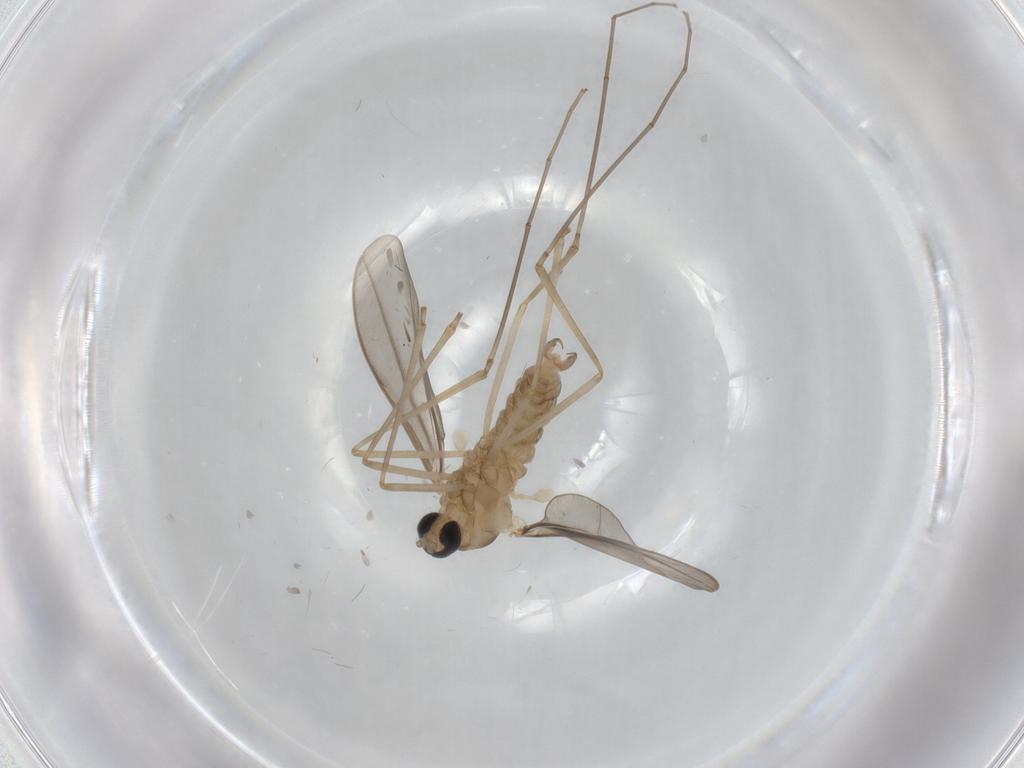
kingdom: Animalia
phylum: Arthropoda
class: Insecta
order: Diptera
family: Cecidomyiidae
